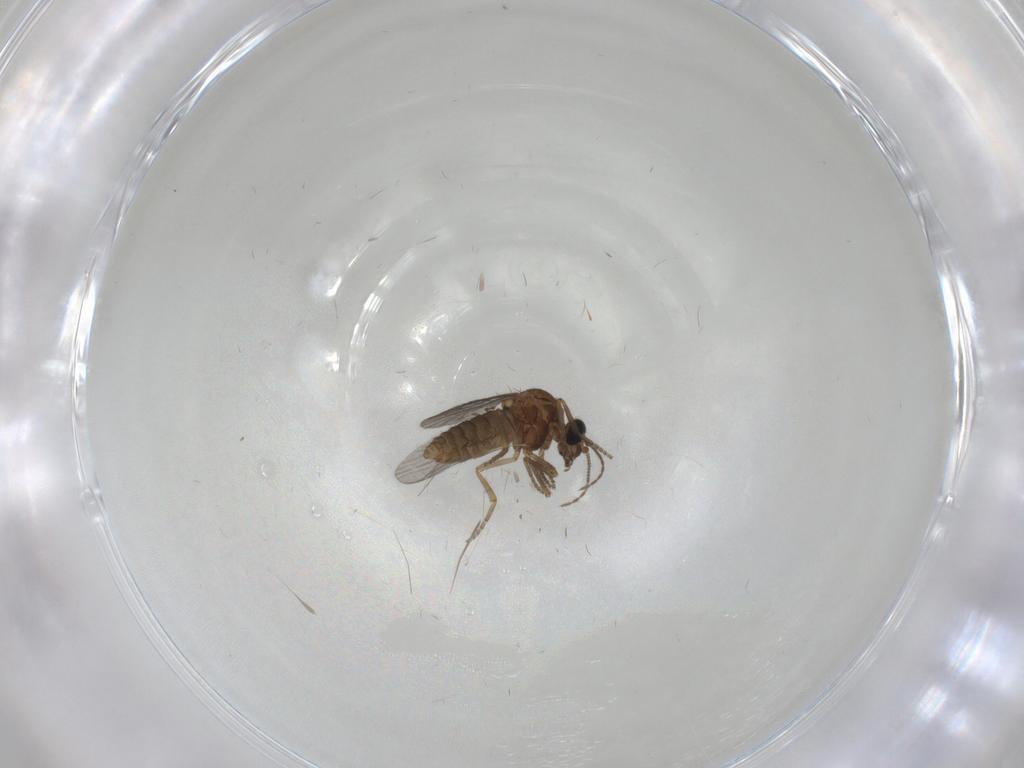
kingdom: Animalia
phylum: Arthropoda
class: Insecta
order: Diptera
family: Ceratopogonidae
